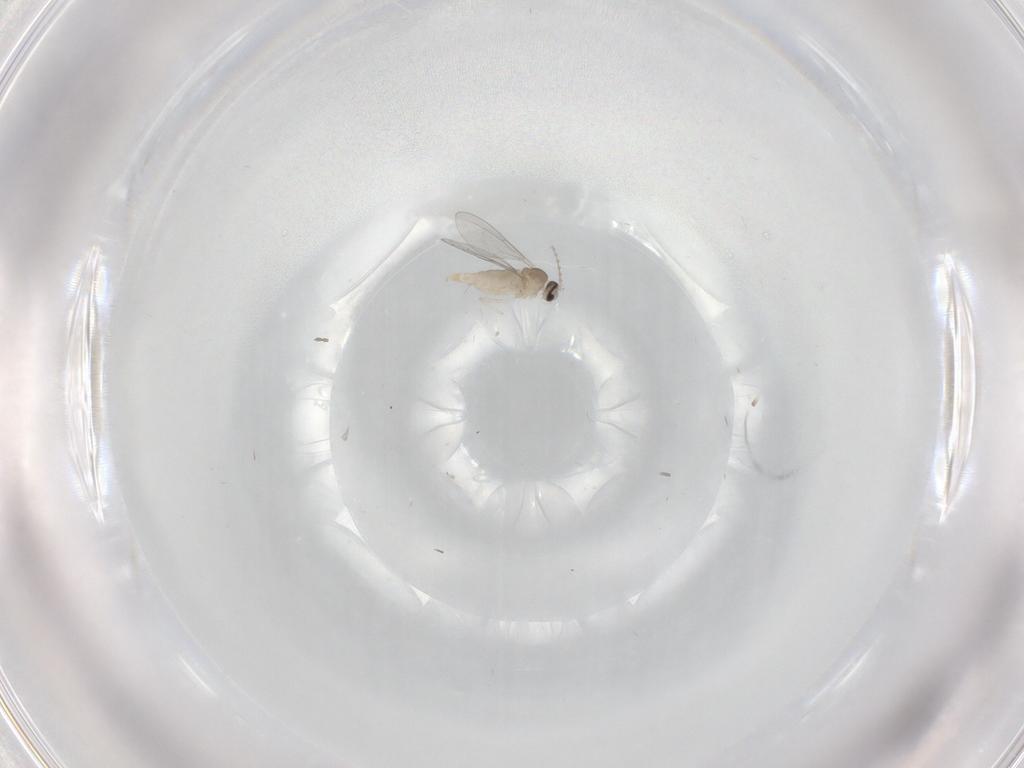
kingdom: Animalia
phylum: Arthropoda
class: Insecta
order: Diptera
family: Cecidomyiidae
